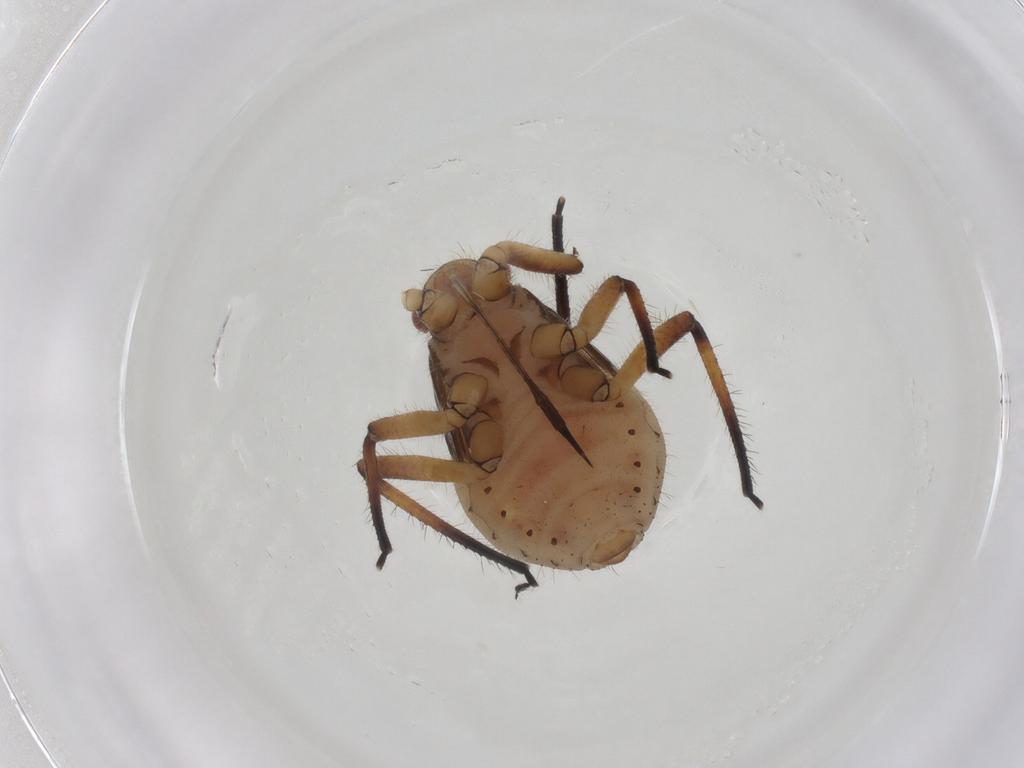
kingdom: Animalia
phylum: Arthropoda
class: Insecta
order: Hemiptera
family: Aphididae
